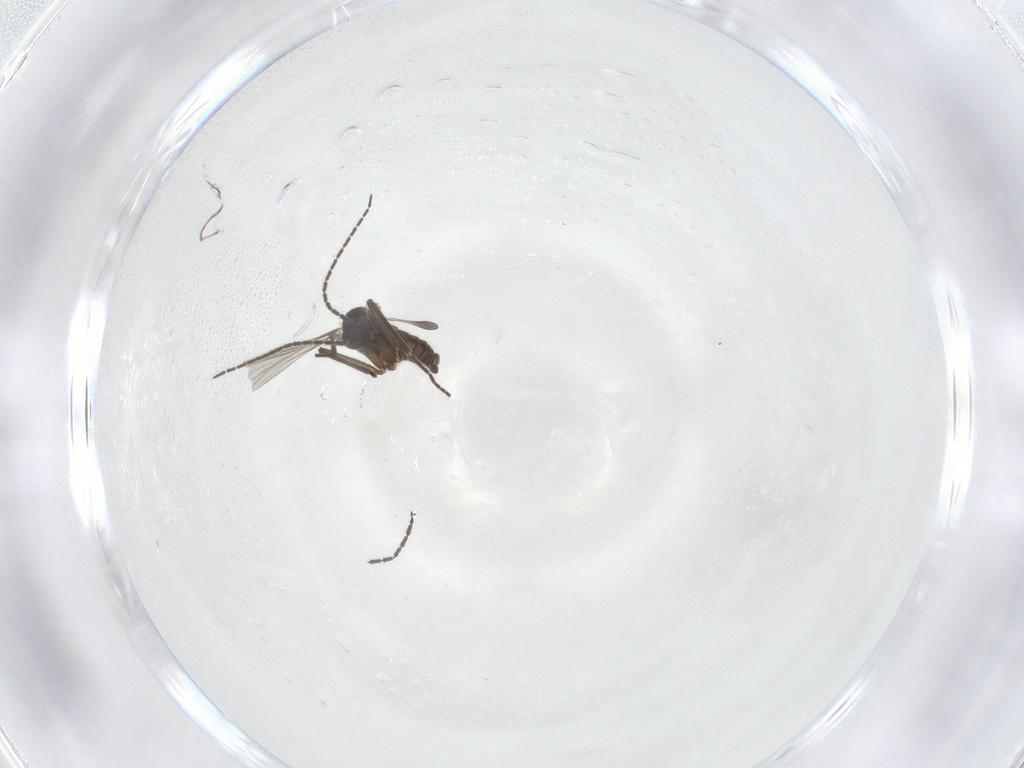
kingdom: Animalia
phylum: Arthropoda
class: Insecta
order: Diptera
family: Sciaridae
